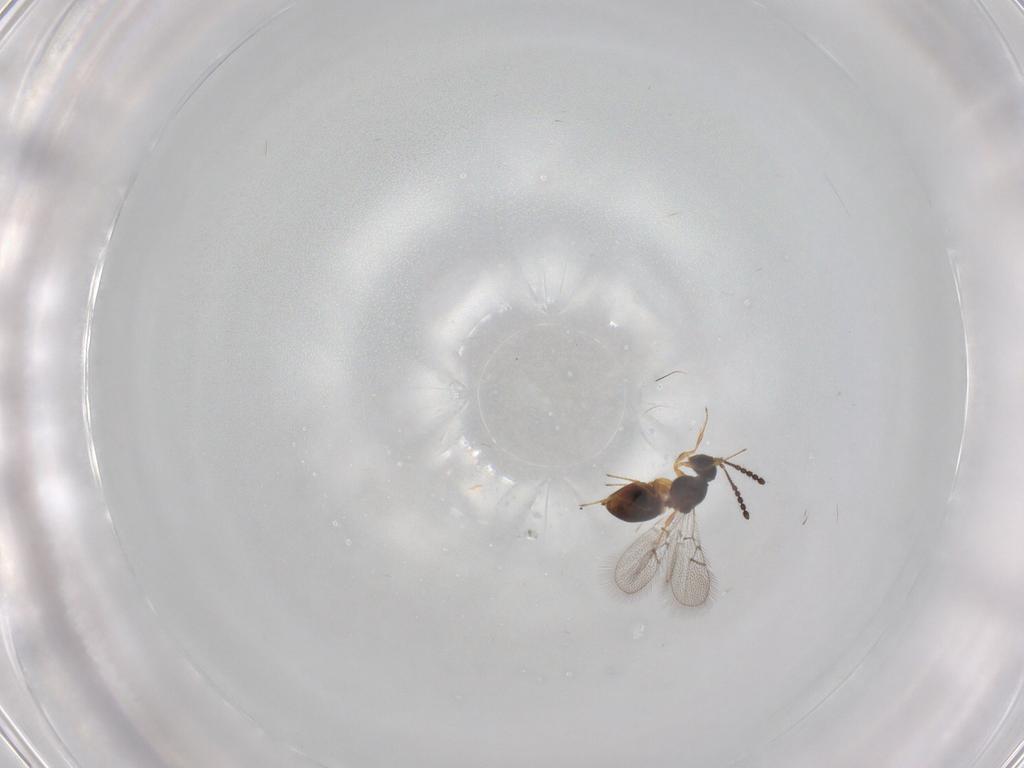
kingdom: Animalia
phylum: Arthropoda
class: Insecta
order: Hymenoptera
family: Figitidae
